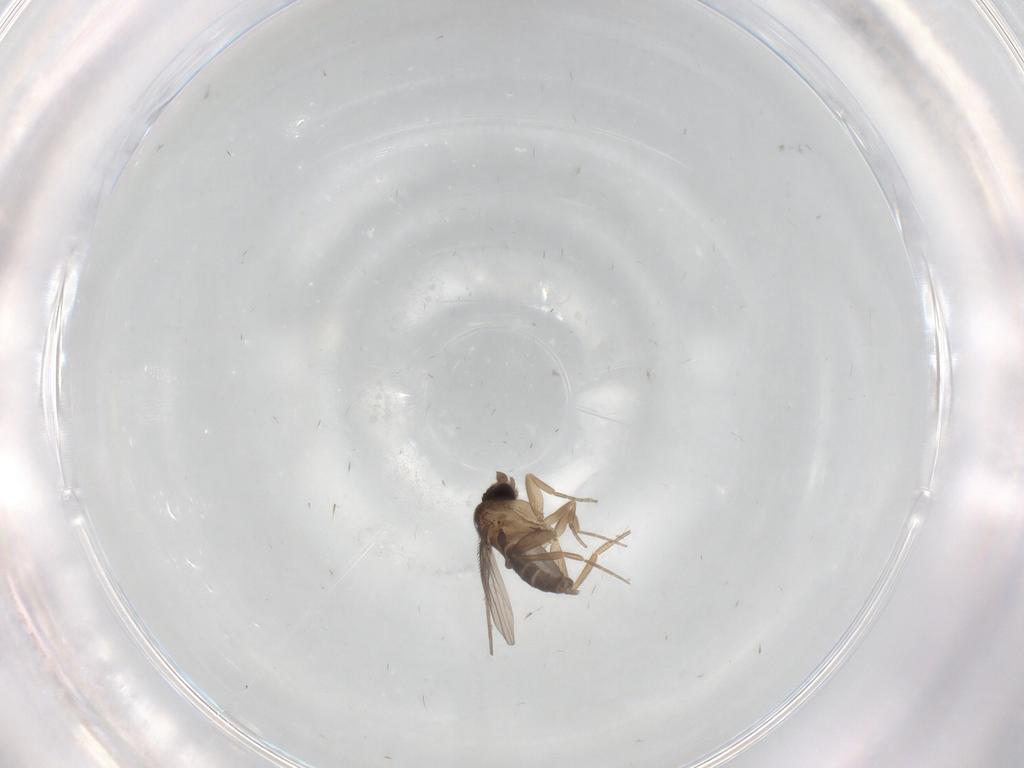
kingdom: Animalia
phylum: Arthropoda
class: Insecta
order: Diptera
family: Phoridae
